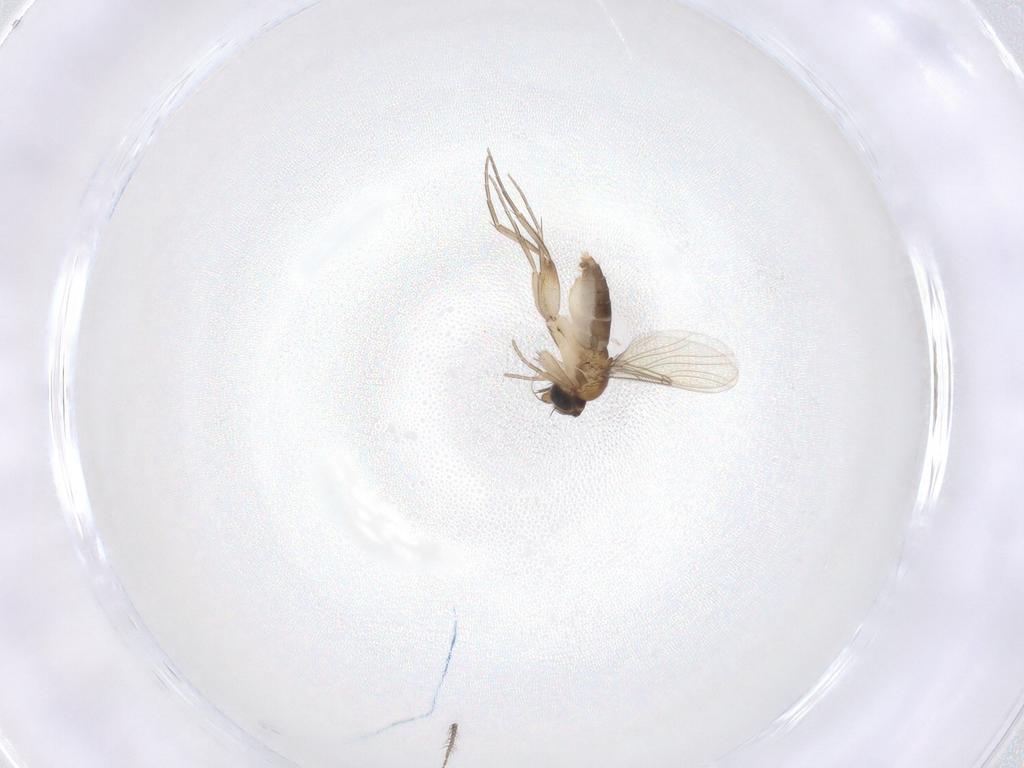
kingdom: Animalia
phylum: Arthropoda
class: Insecta
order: Diptera
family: Phoridae
